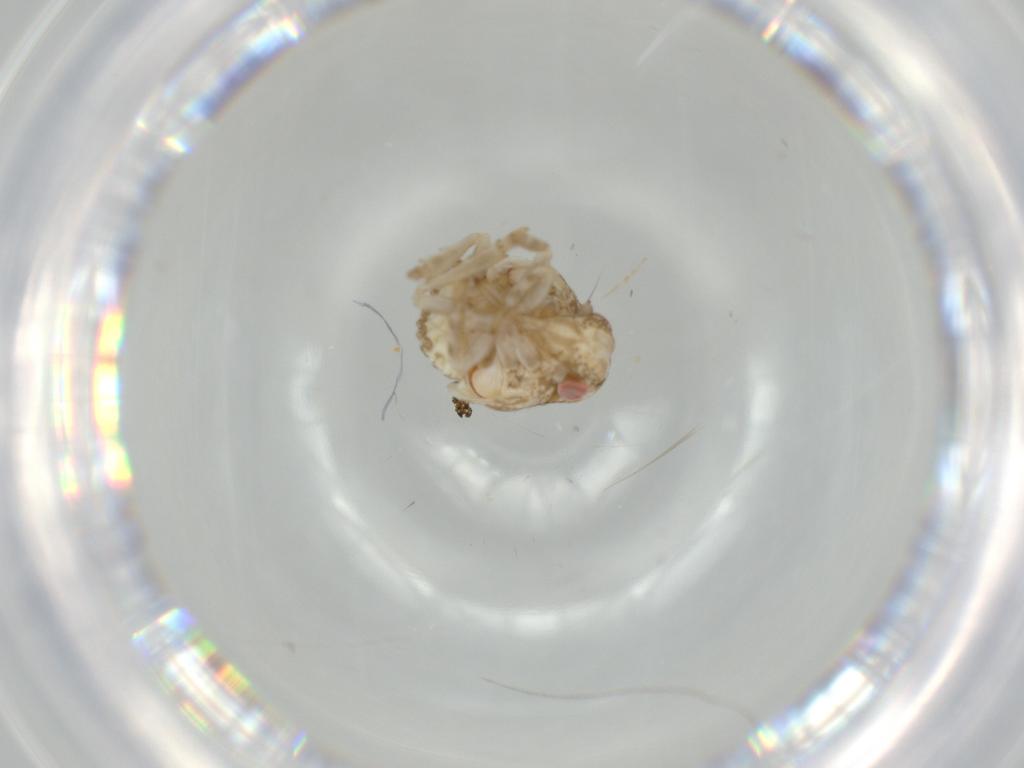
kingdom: Animalia
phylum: Arthropoda
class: Insecta
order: Hemiptera
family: Acanaloniidae
